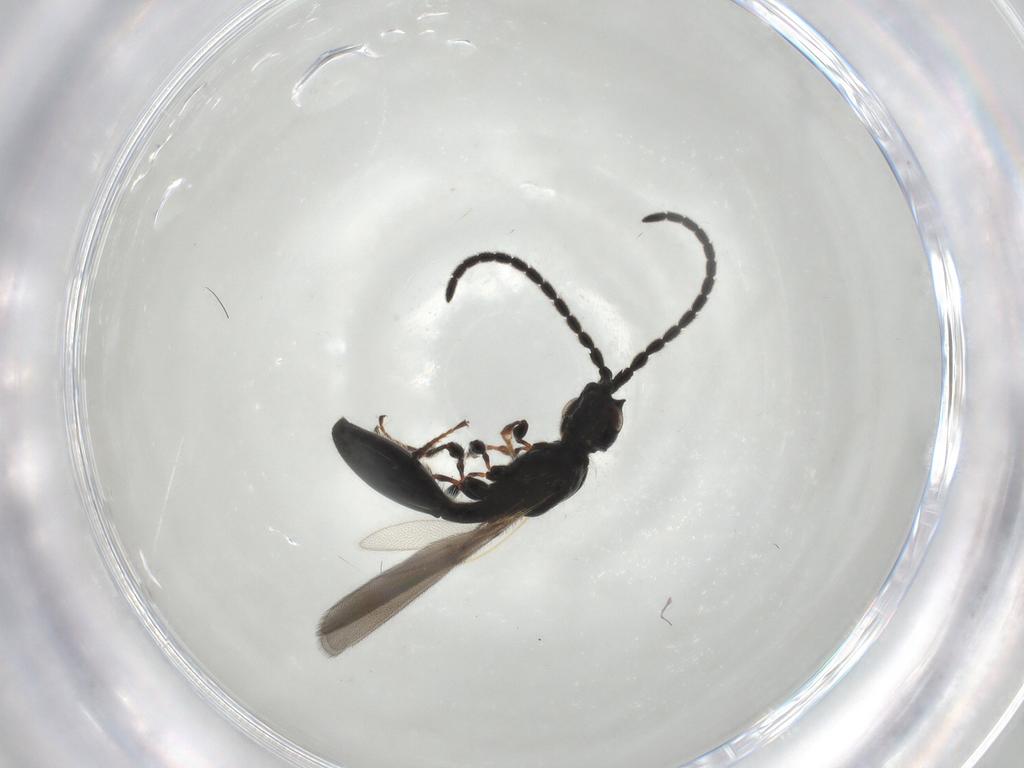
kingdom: Animalia
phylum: Arthropoda
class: Insecta
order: Hymenoptera
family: Diapriidae
